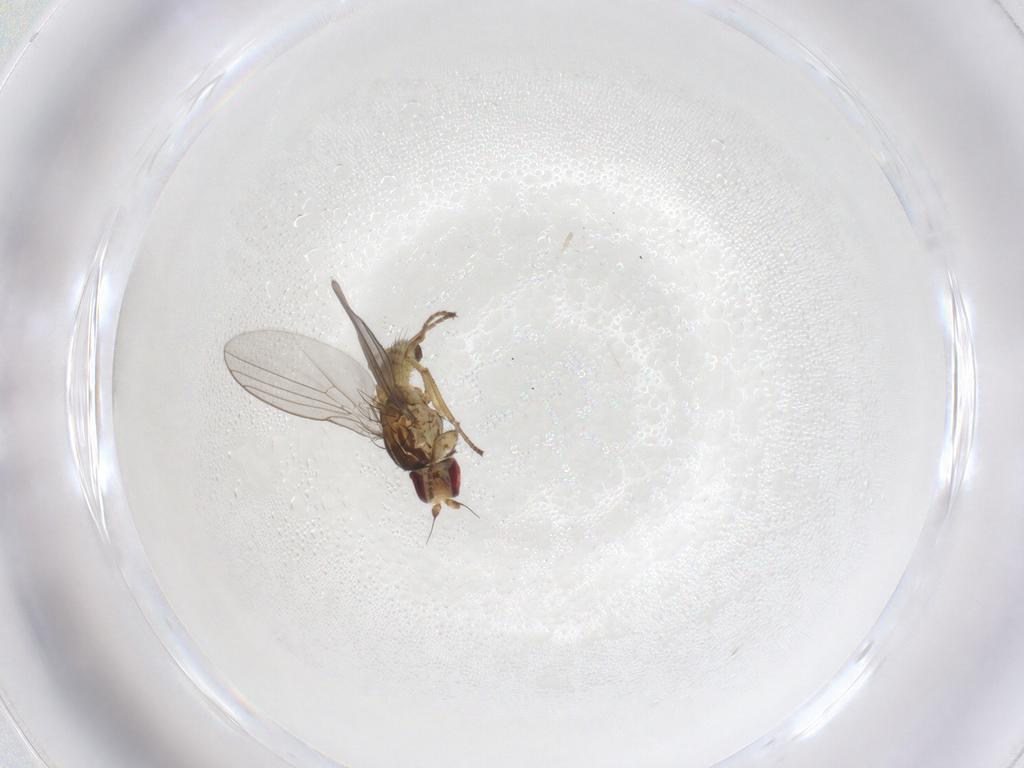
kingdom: Animalia
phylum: Arthropoda
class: Insecta
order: Diptera
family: Agromyzidae
